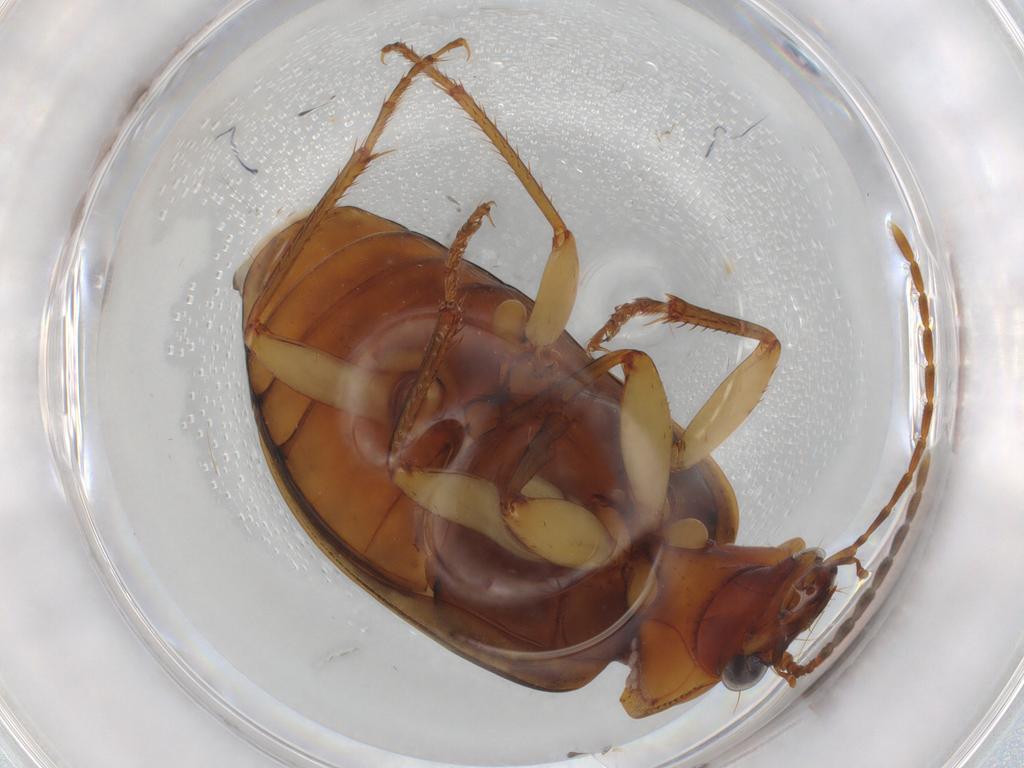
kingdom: Animalia
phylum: Arthropoda
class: Insecta
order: Coleoptera
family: Carabidae
